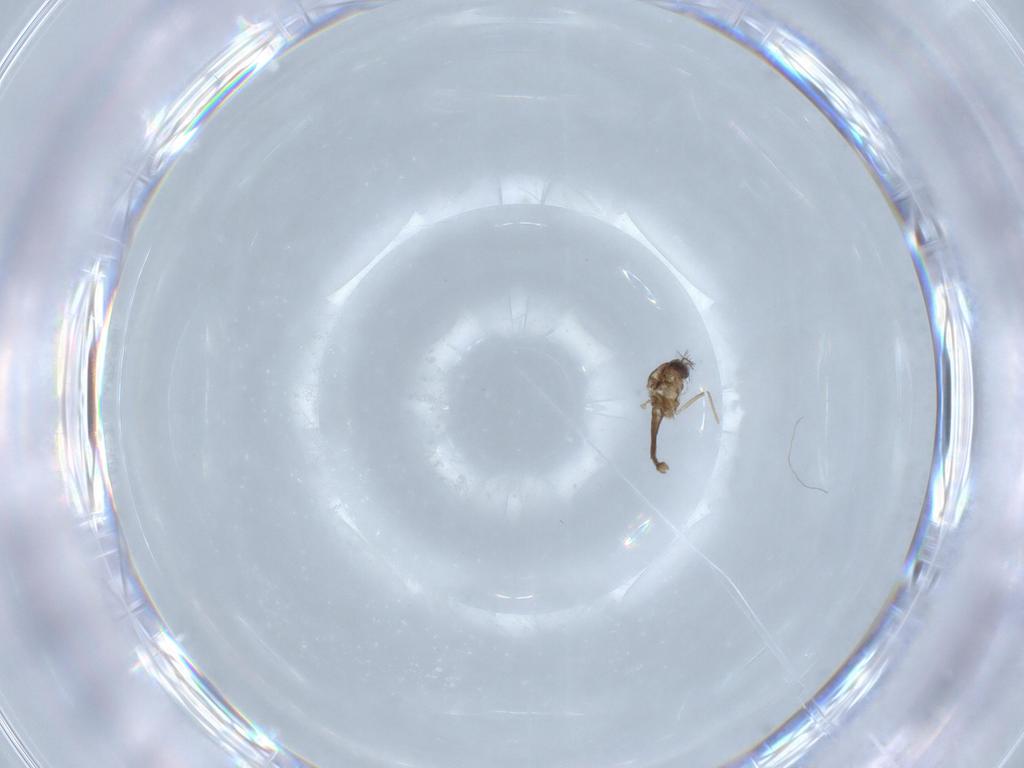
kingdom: Animalia
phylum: Arthropoda
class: Insecta
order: Diptera
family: Chironomidae
